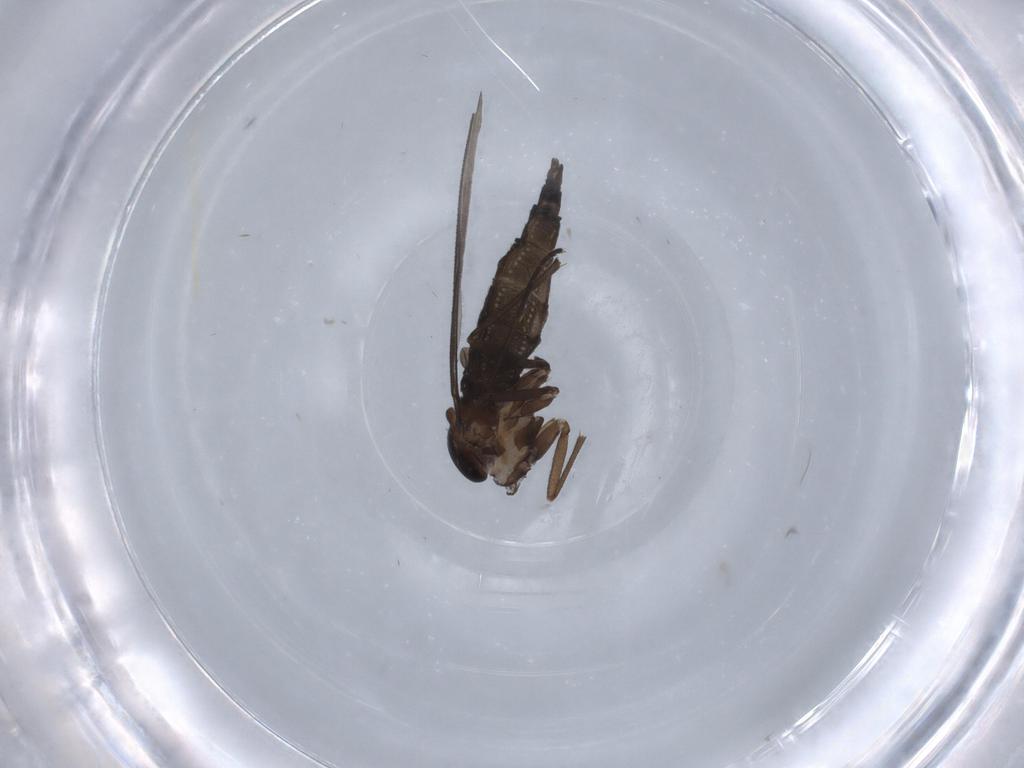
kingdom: Animalia
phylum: Arthropoda
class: Insecta
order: Diptera
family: Sciaridae
